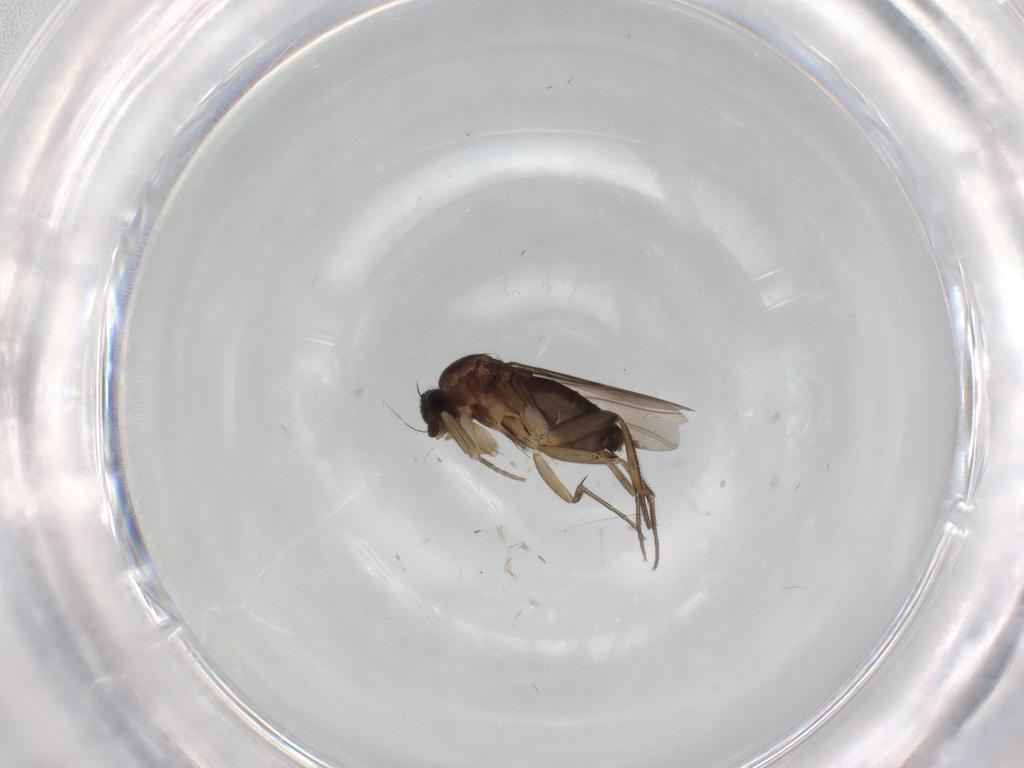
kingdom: Animalia
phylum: Arthropoda
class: Insecta
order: Diptera
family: Phoridae
